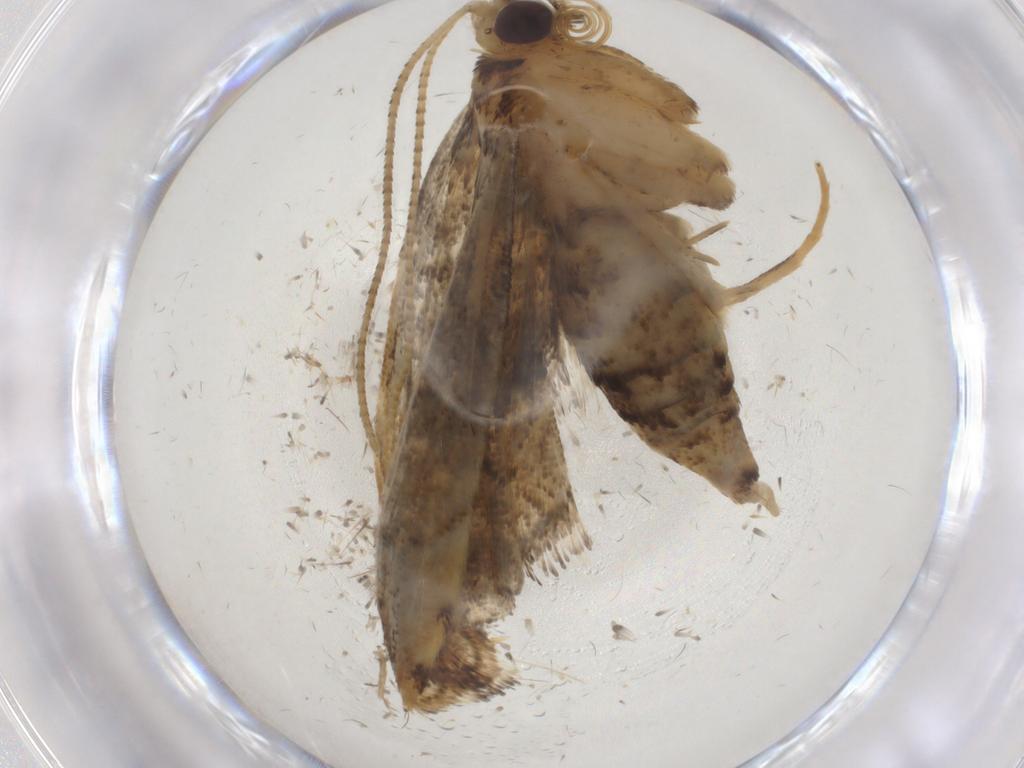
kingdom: Animalia
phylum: Arthropoda
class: Insecta
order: Lepidoptera
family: Crambidae
